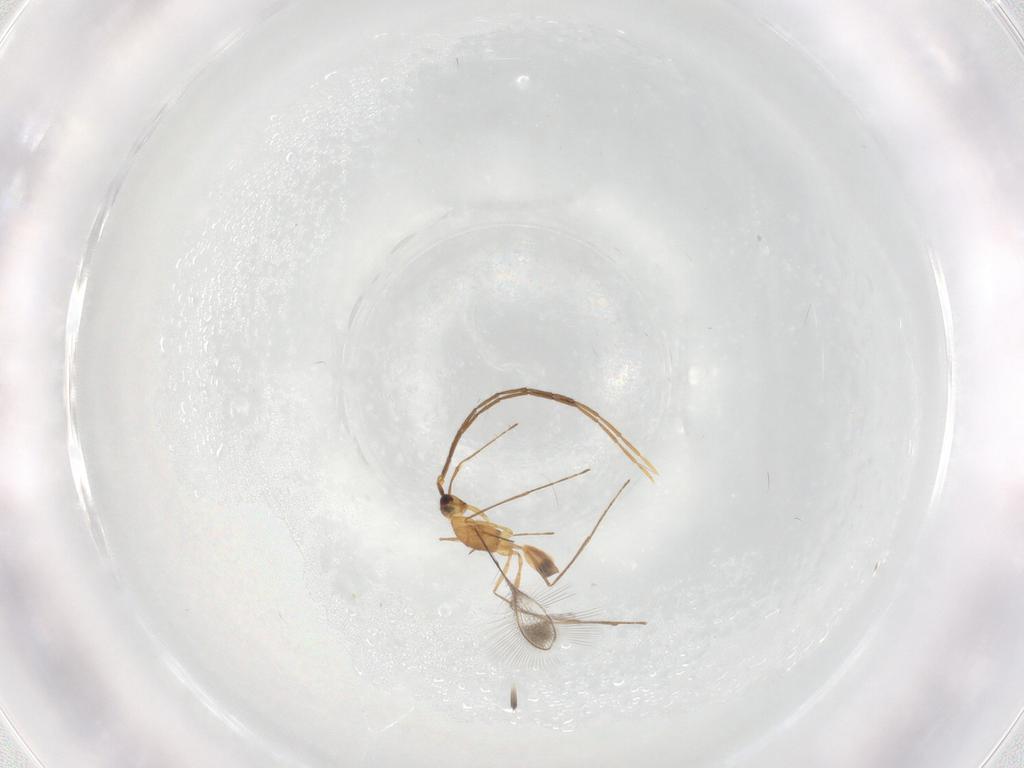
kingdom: Animalia
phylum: Arthropoda
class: Insecta
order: Hymenoptera
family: Mymaridae
